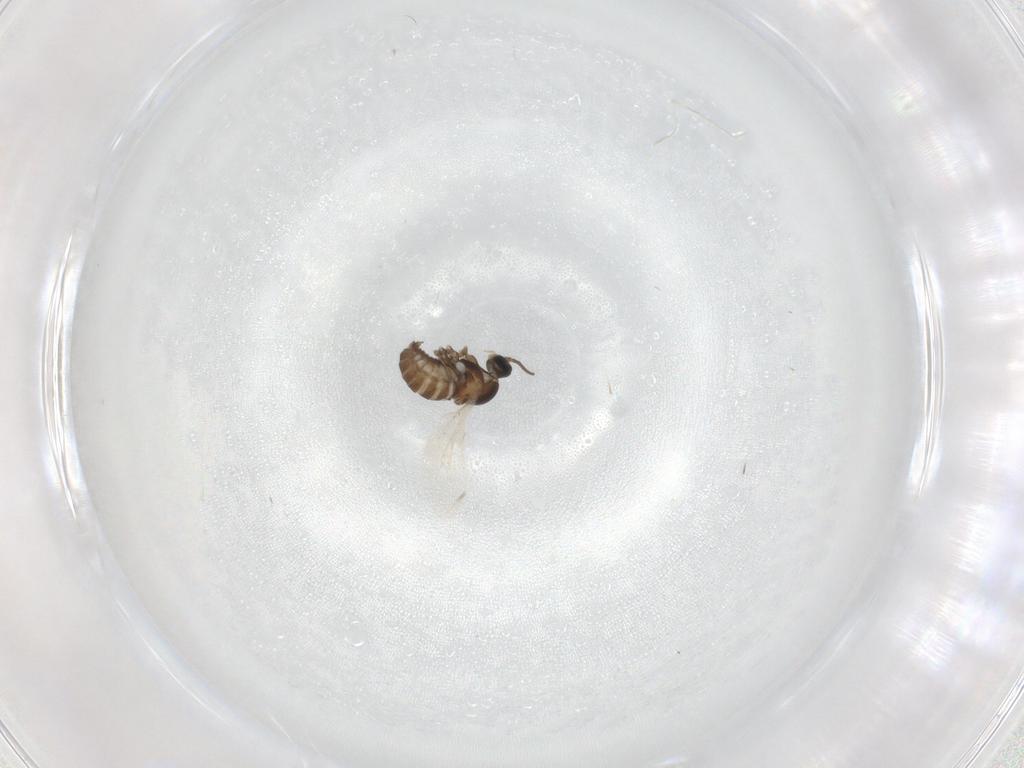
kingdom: Animalia
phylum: Arthropoda
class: Insecta
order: Diptera
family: Cecidomyiidae
